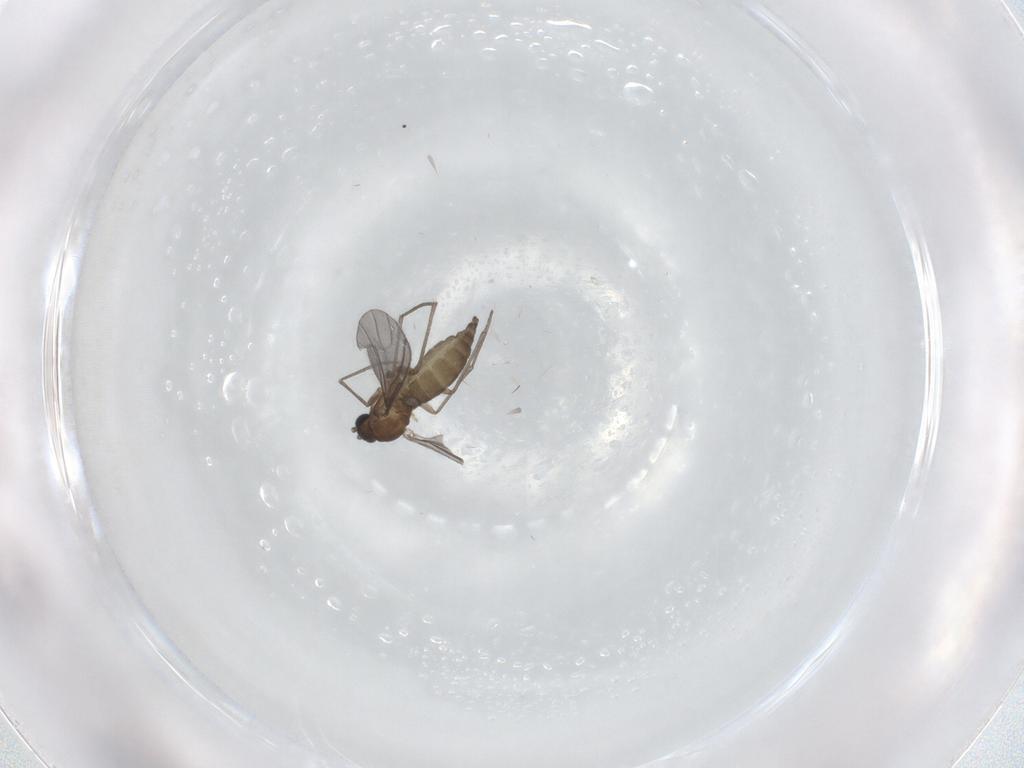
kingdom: Animalia
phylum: Arthropoda
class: Insecta
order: Diptera
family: Sciaridae
